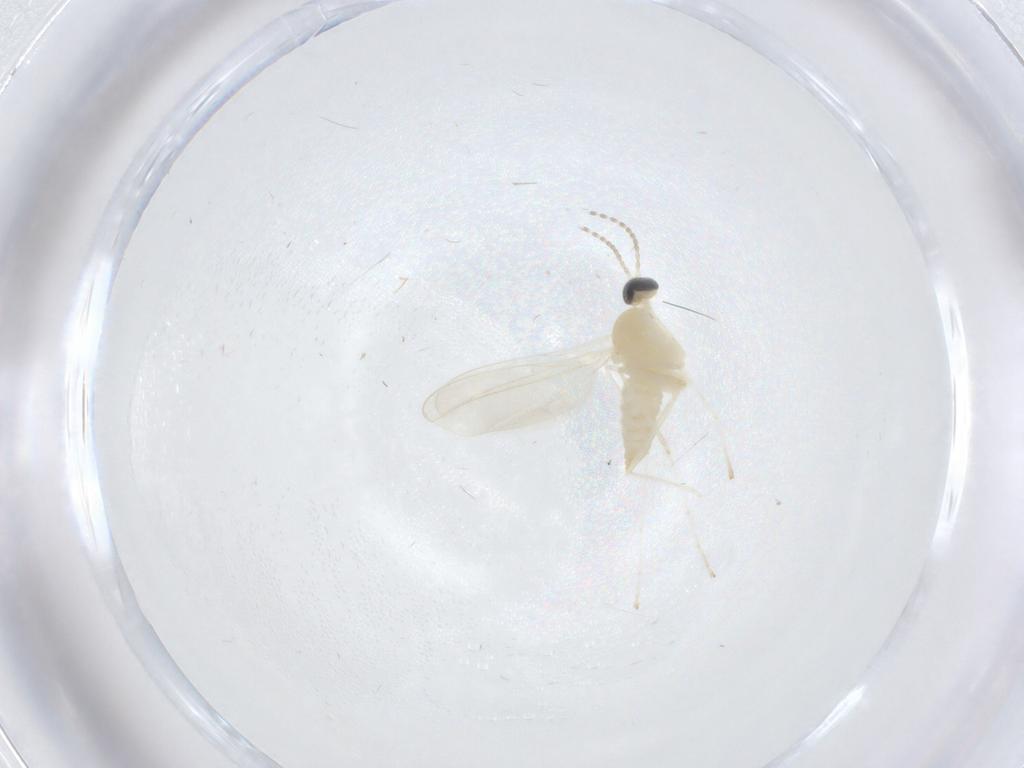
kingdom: Animalia
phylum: Arthropoda
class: Insecta
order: Diptera
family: Cecidomyiidae
